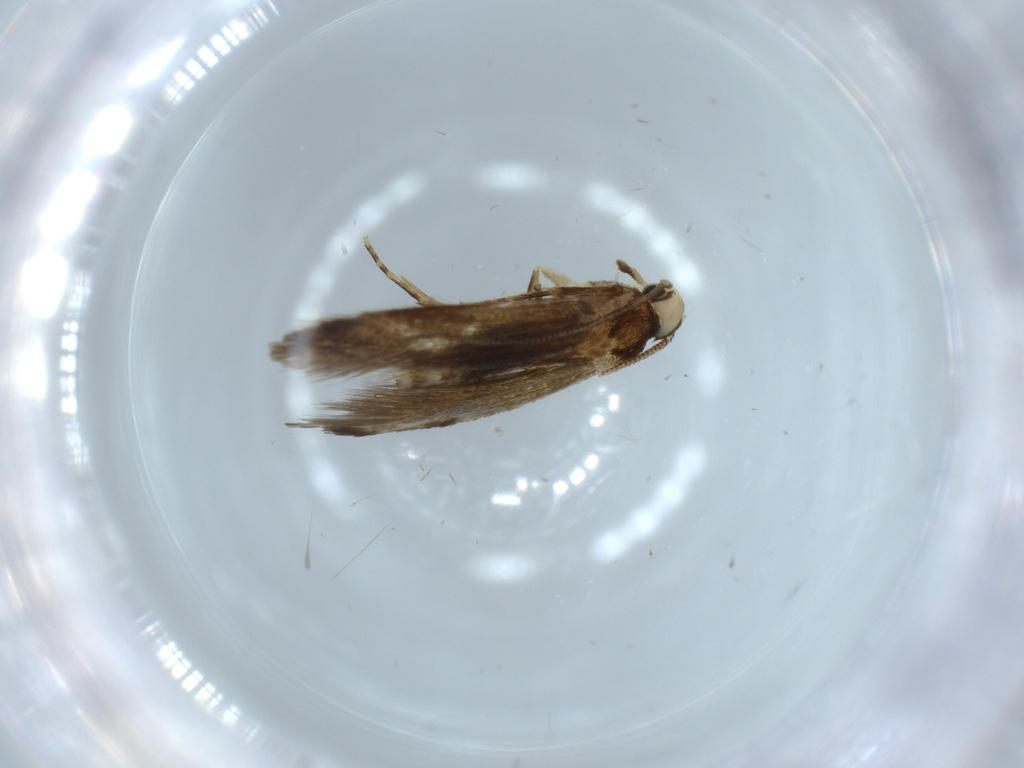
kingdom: Animalia
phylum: Arthropoda
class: Insecta
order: Lepidoptera
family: Tineidae
